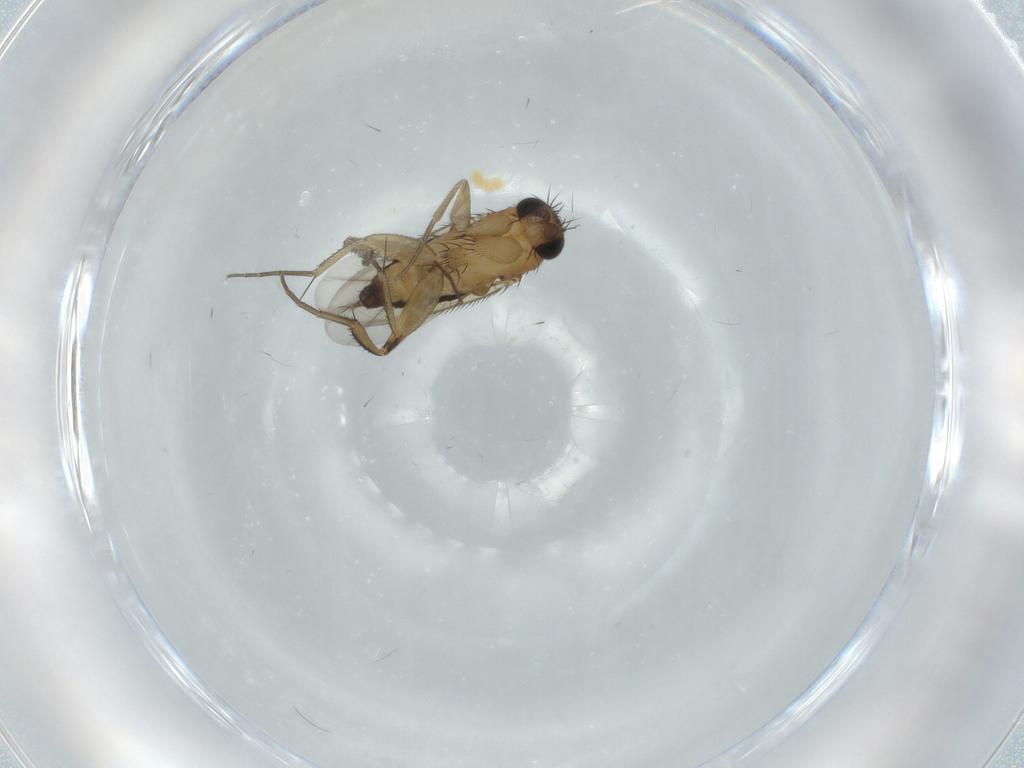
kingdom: Animalia
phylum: Arthropoda
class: Insecta
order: Diptera
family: Phoridae
